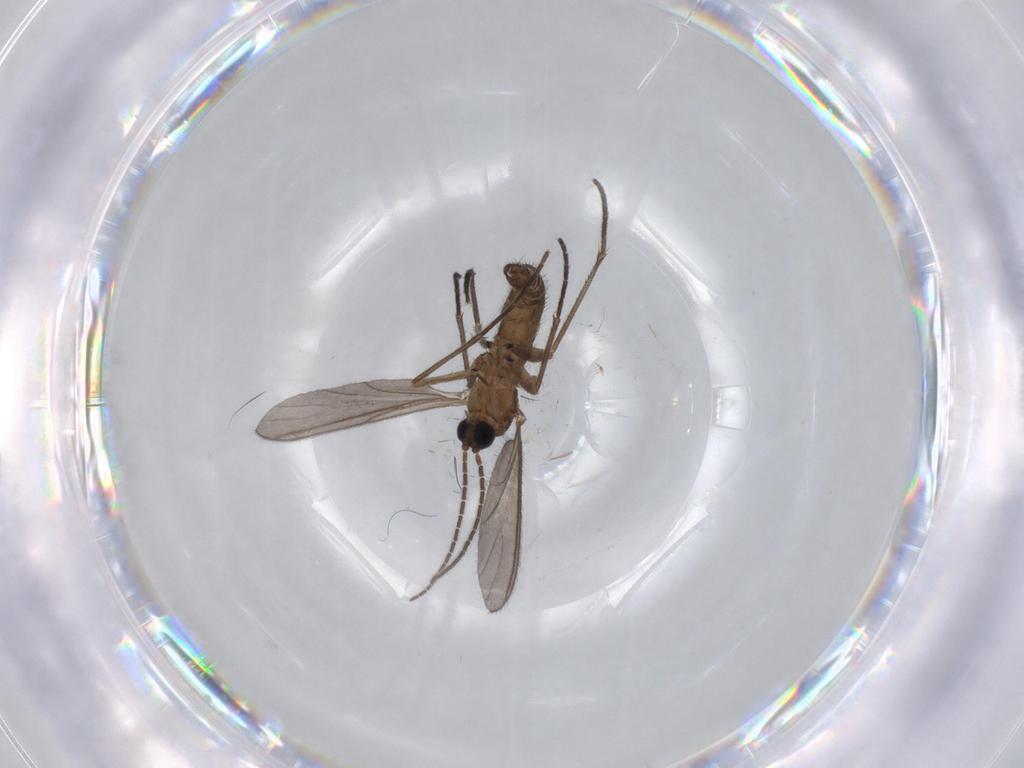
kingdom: Animalia
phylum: Arthropoda
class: Insecta
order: Diptera
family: Sciaridae
